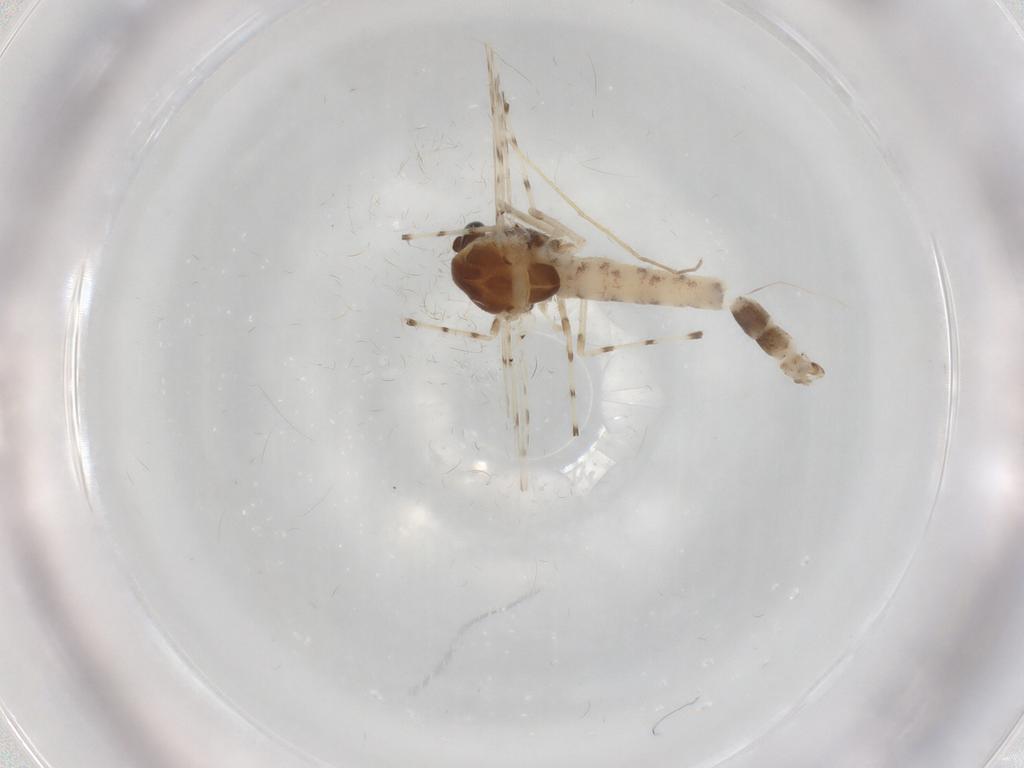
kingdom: Animalia
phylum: Arthropoda
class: Insecta
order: Diptera
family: Chironomidae
